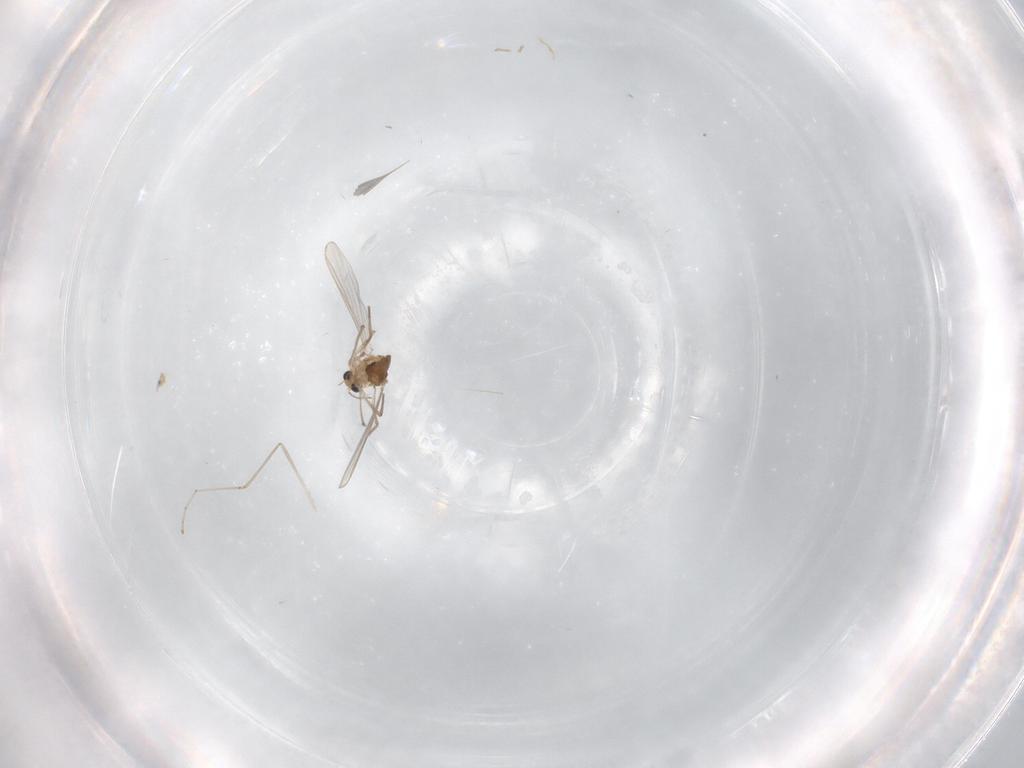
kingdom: Animalia
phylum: Arthropoda
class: Insecta
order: Diptera
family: Chironomidae
